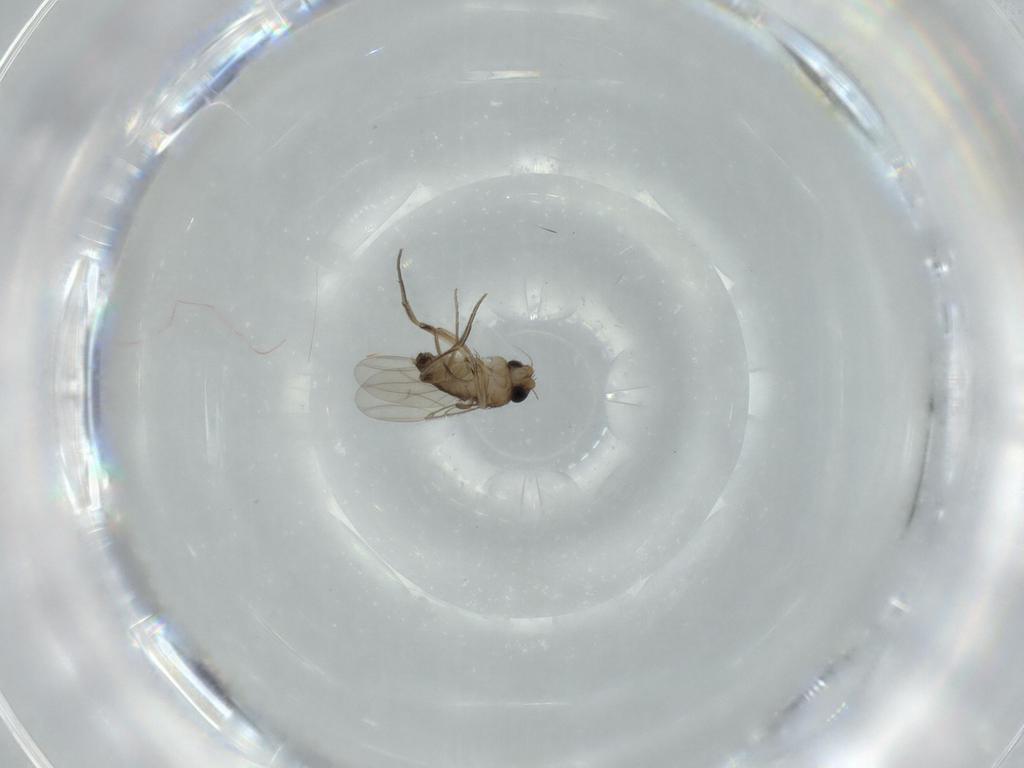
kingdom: Animalia
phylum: Arthropoda
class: Insecta
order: Diptera
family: Phoridae
